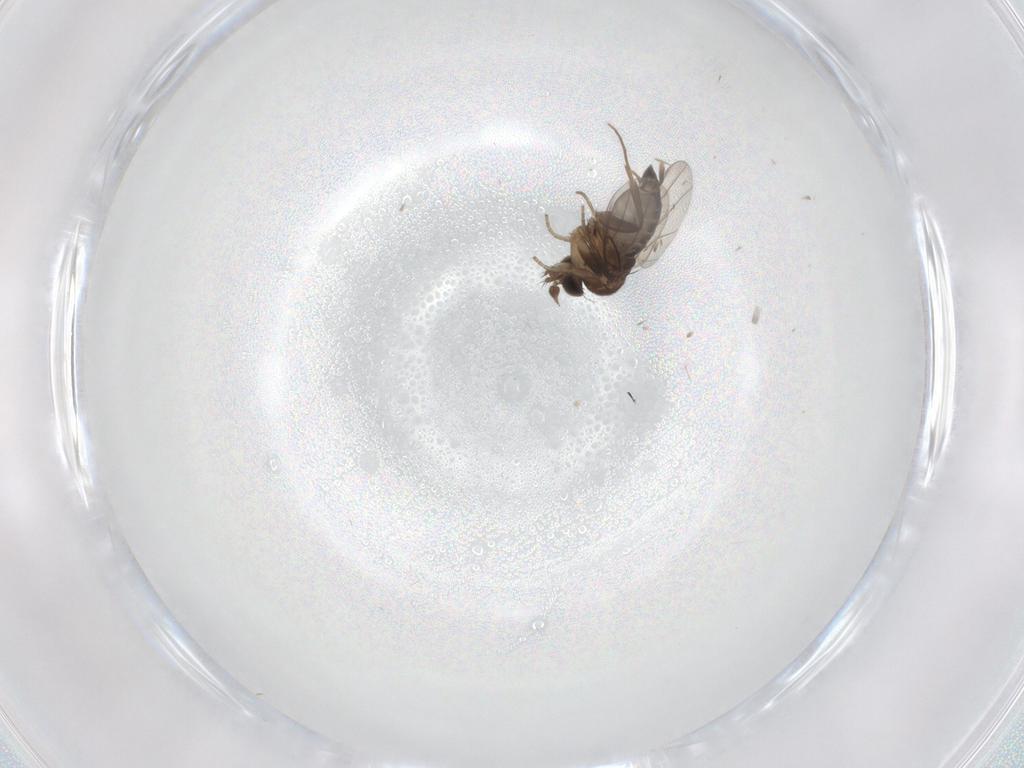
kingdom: Animalia
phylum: Arthropoda
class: Insecta
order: Diptera
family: Phoridae
